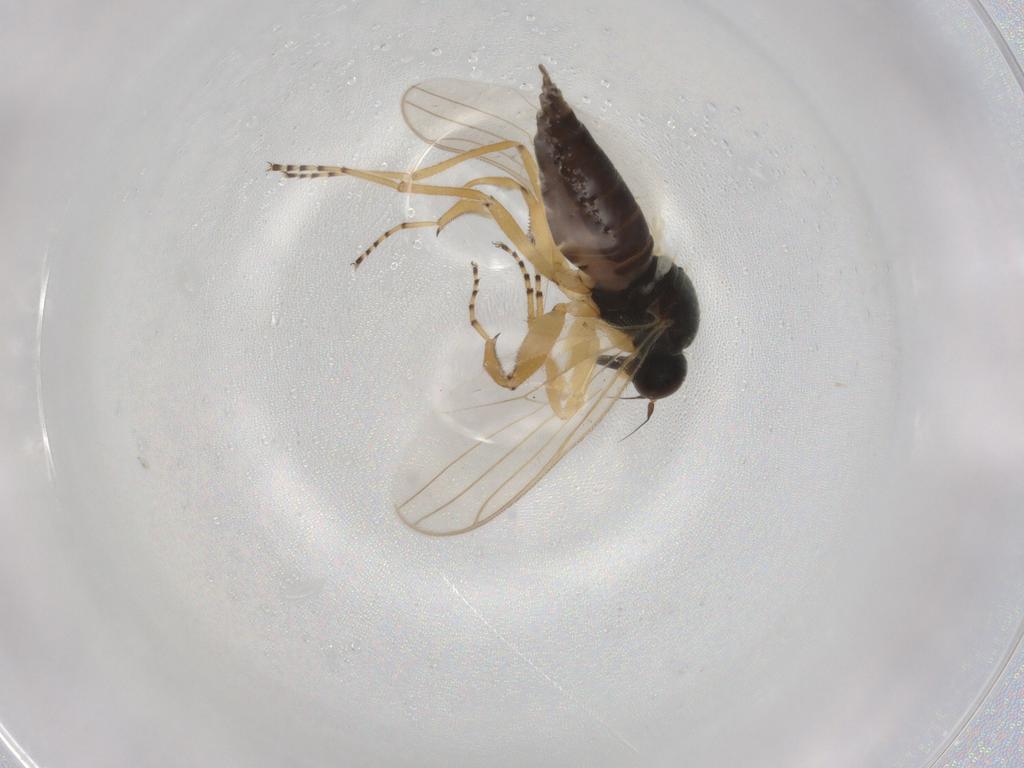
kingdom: Animalia
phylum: Arthropoda
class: Insecta
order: Diptera
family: Hybotidae
